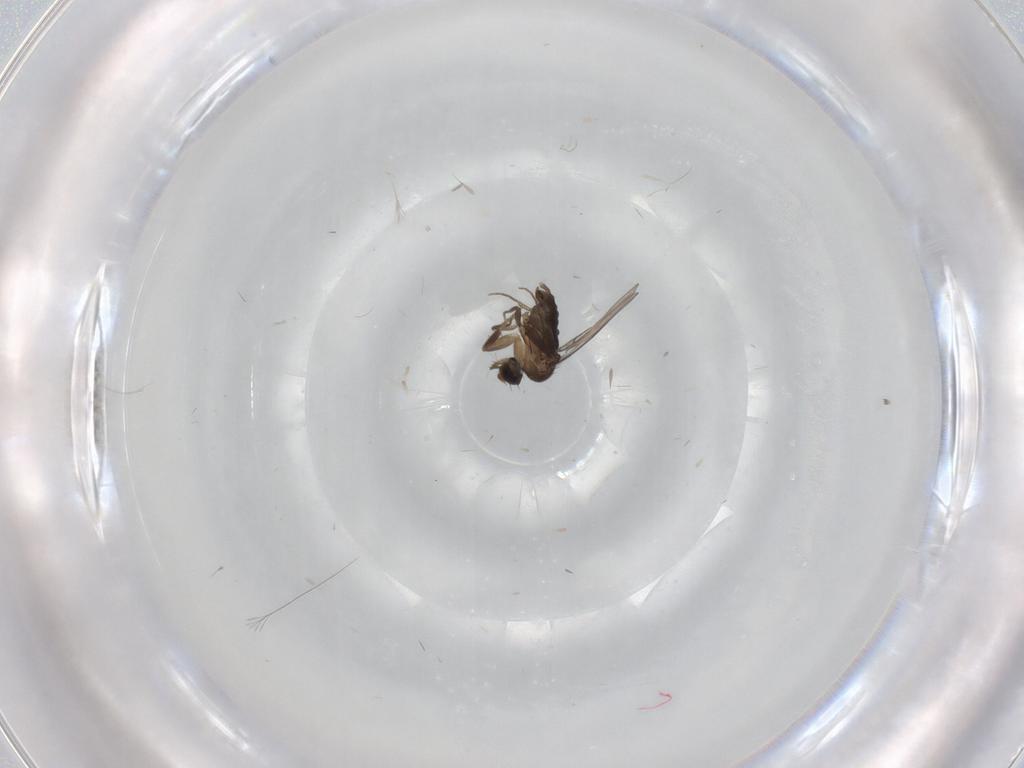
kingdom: Animalia
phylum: Arthropoda
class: Insecta
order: Diptera
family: Phoridae
